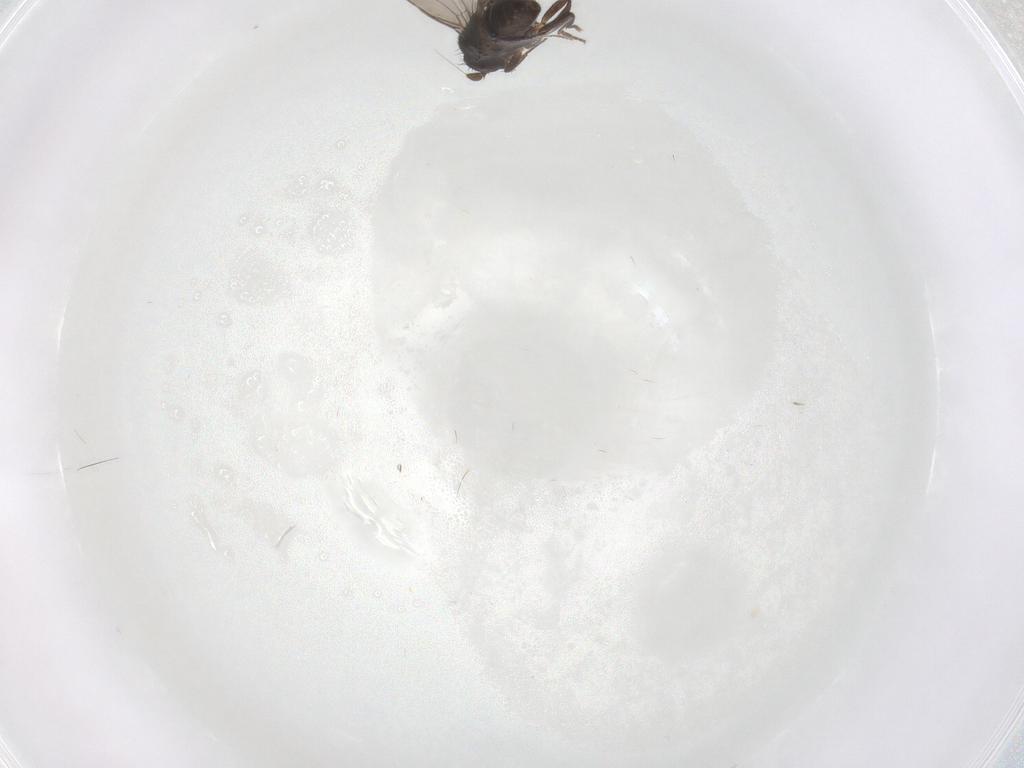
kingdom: Animalia
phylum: Arthropoda
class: Insecta
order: Diptera
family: Sphaeroceridae
